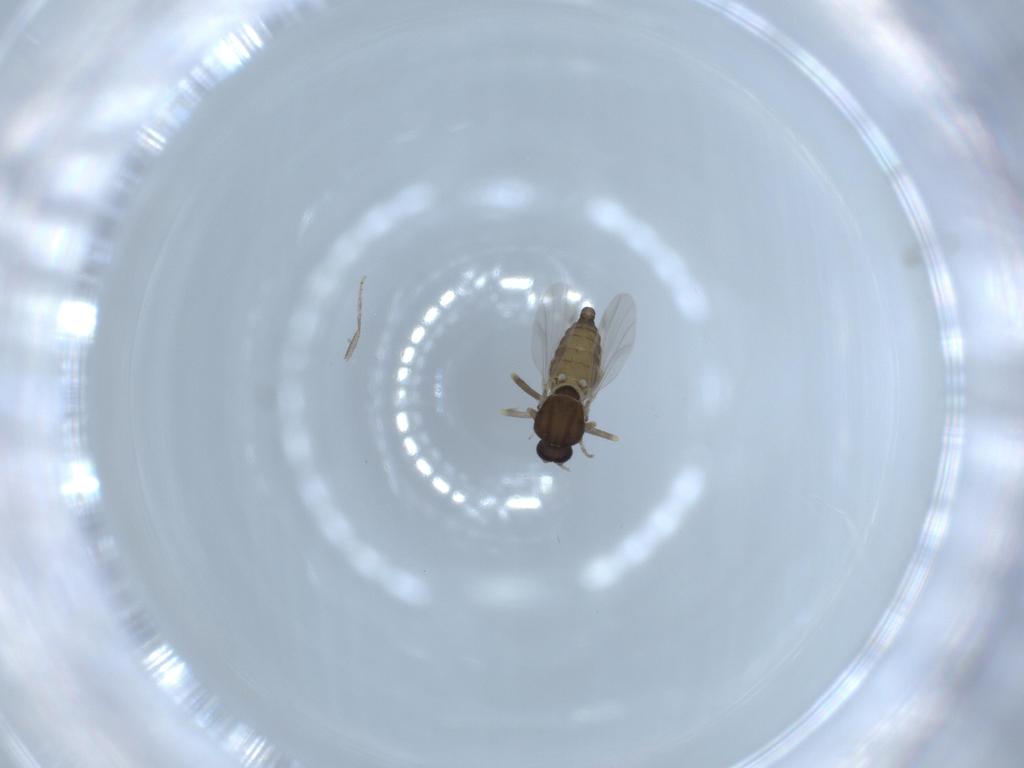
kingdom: Animalia
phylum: Arthropoda
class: Insecta
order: Diptera
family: Ceratopogonidae
